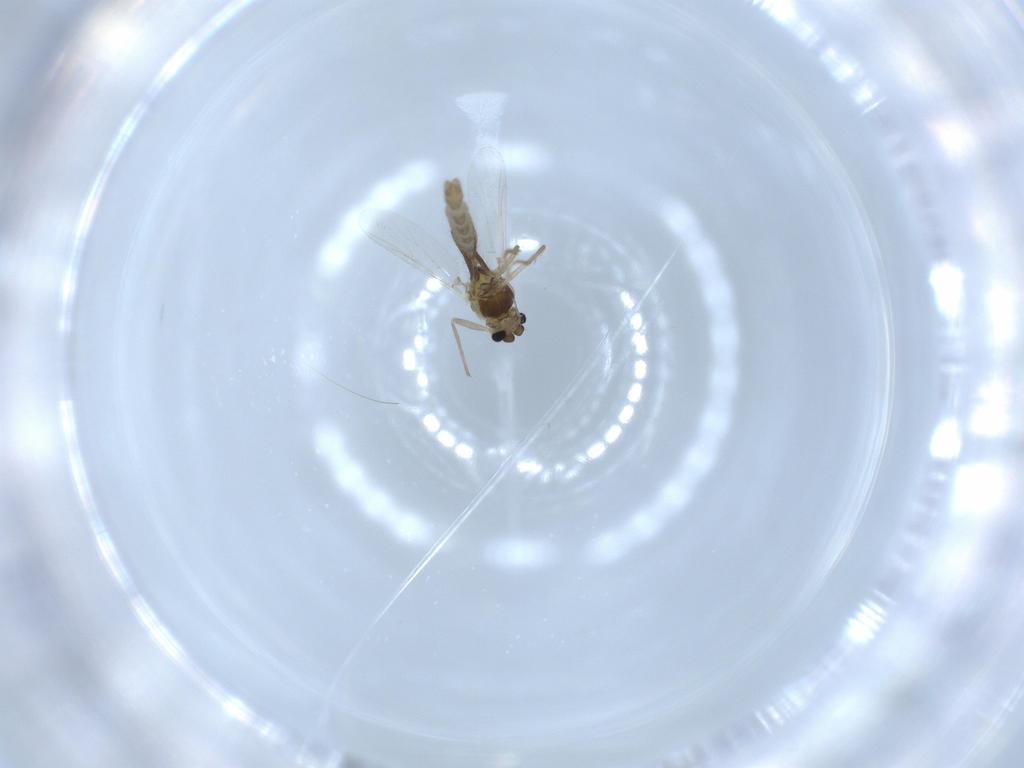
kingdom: Animalia
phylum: Arthropoda
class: Insecta
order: Diptera
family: Chironomidae
